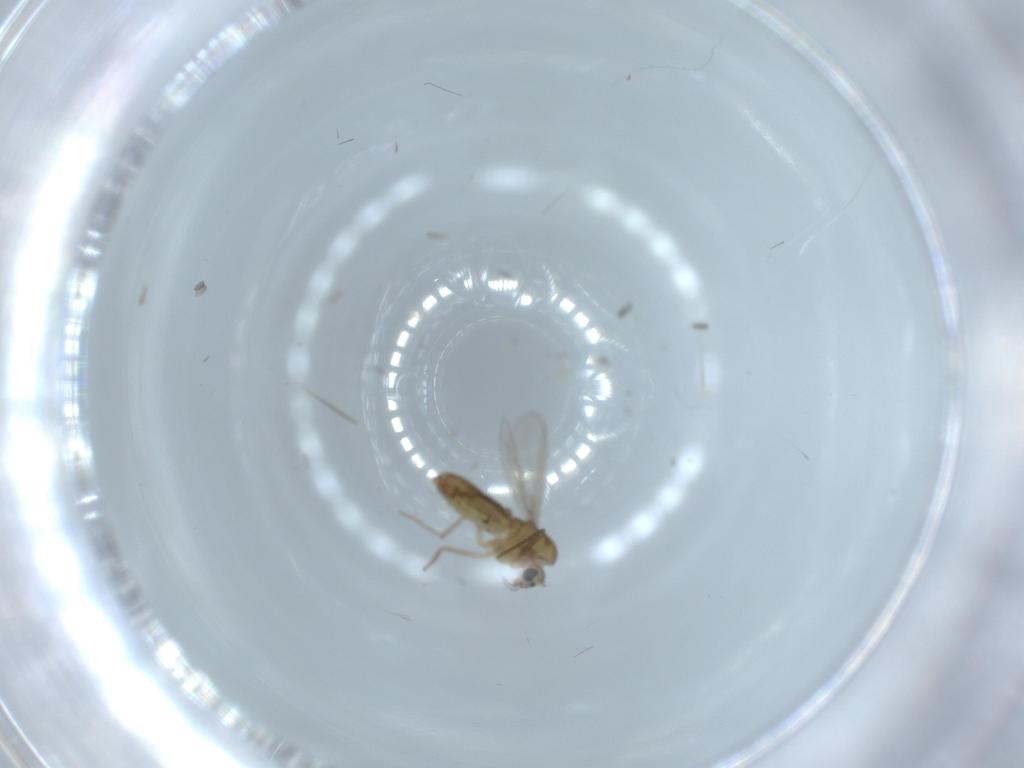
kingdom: Animalia
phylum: Arthropoda
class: Insecta
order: Diptera
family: Chironomidae
